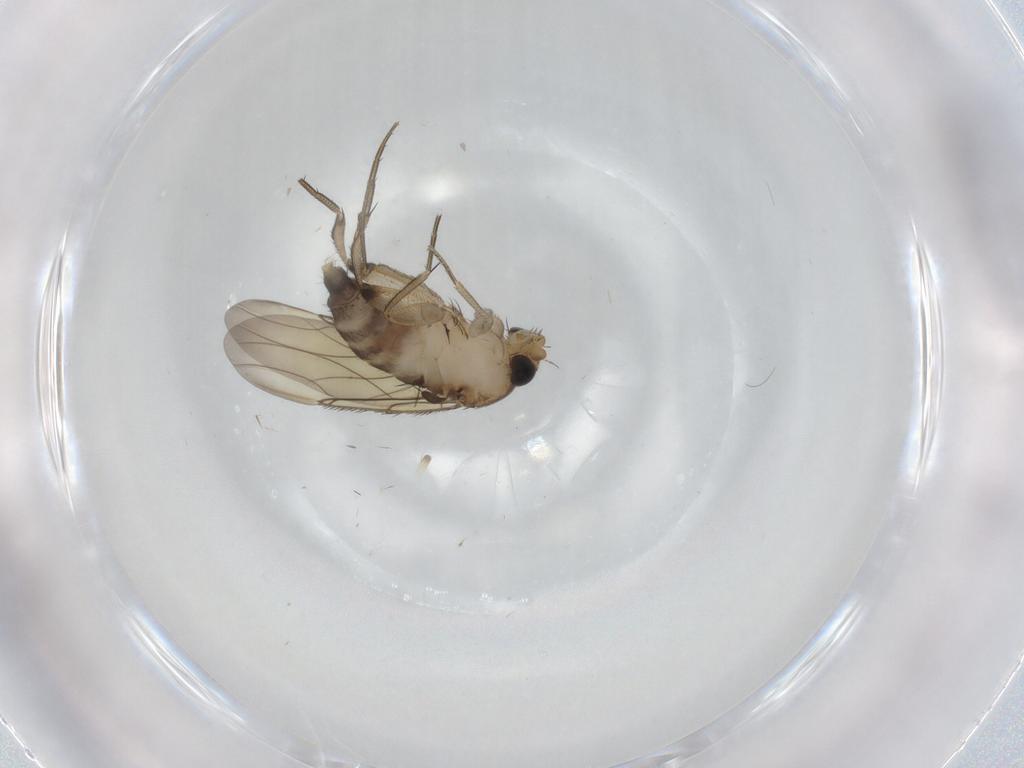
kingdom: Animalia
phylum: Arthropoda
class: Insecta
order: Diptera
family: Phoridae
